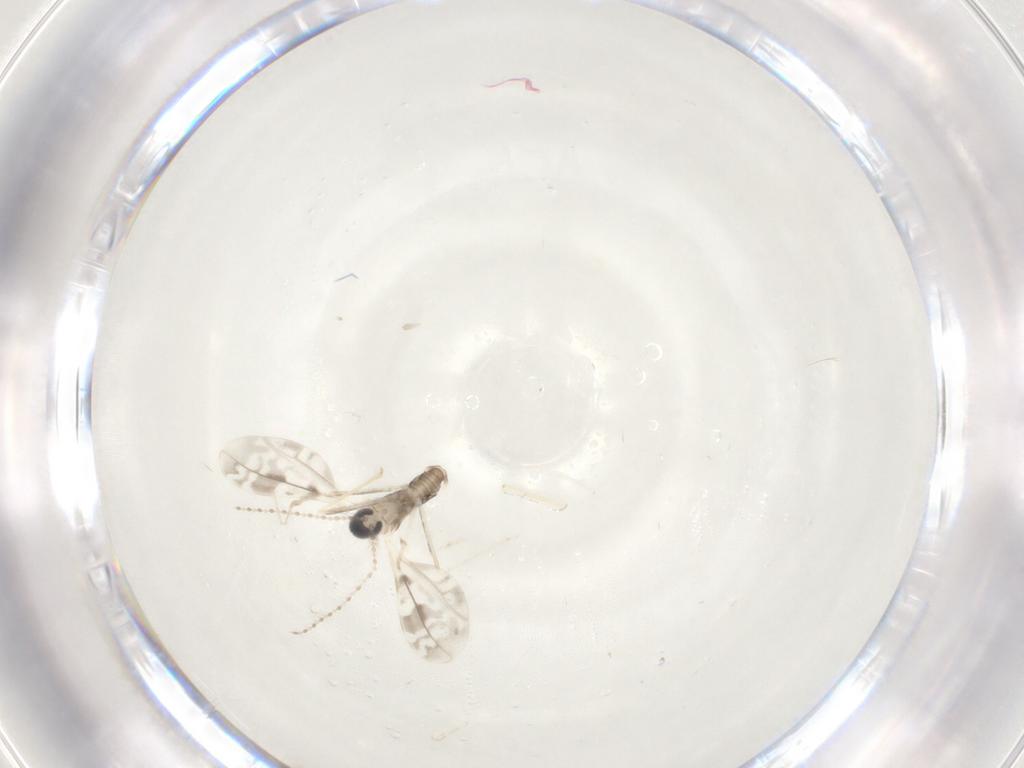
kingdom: Animalia
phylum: Arthropoda
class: Insecta
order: Diptera
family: Cecidomyiidae
